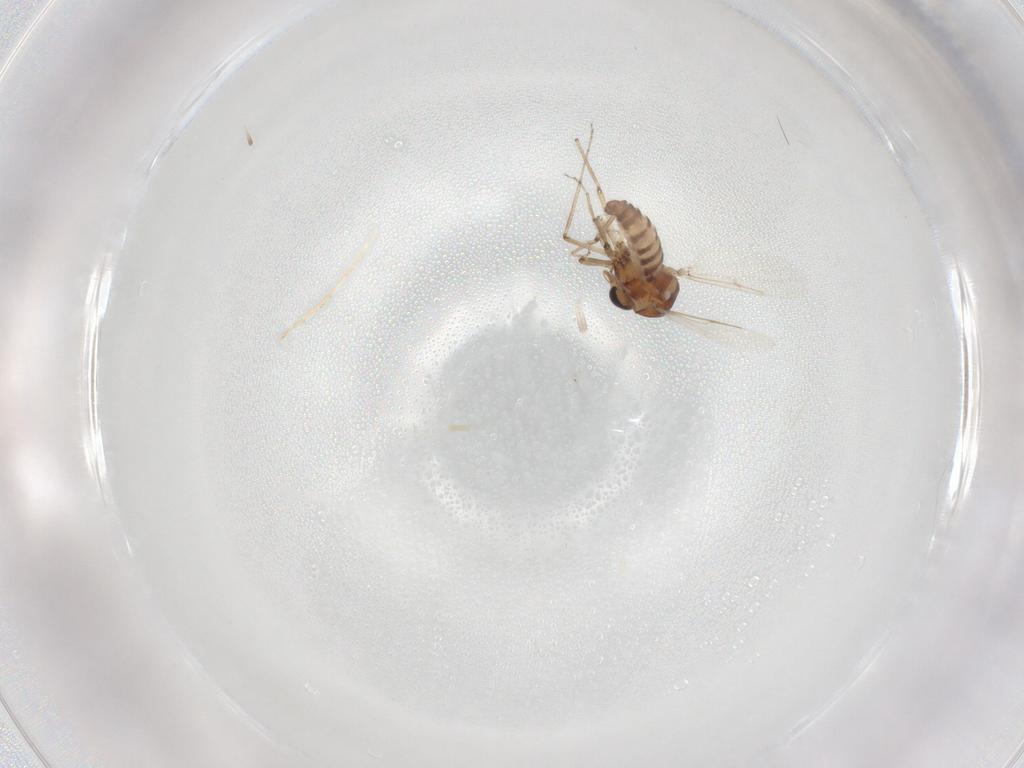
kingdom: Animalia
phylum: Arthropoda
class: Insecta
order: Diptera
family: Ceratopogonidae
